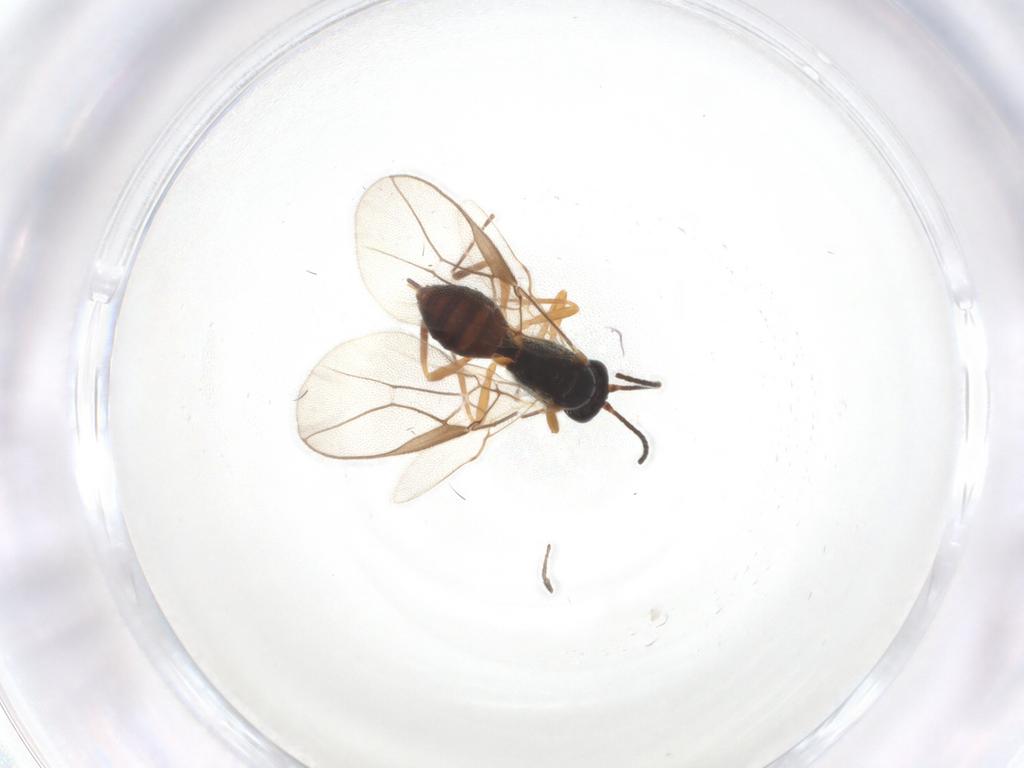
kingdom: Animalia
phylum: Arthropoda
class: Insecta
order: Hymenoptera
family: Braconidae
